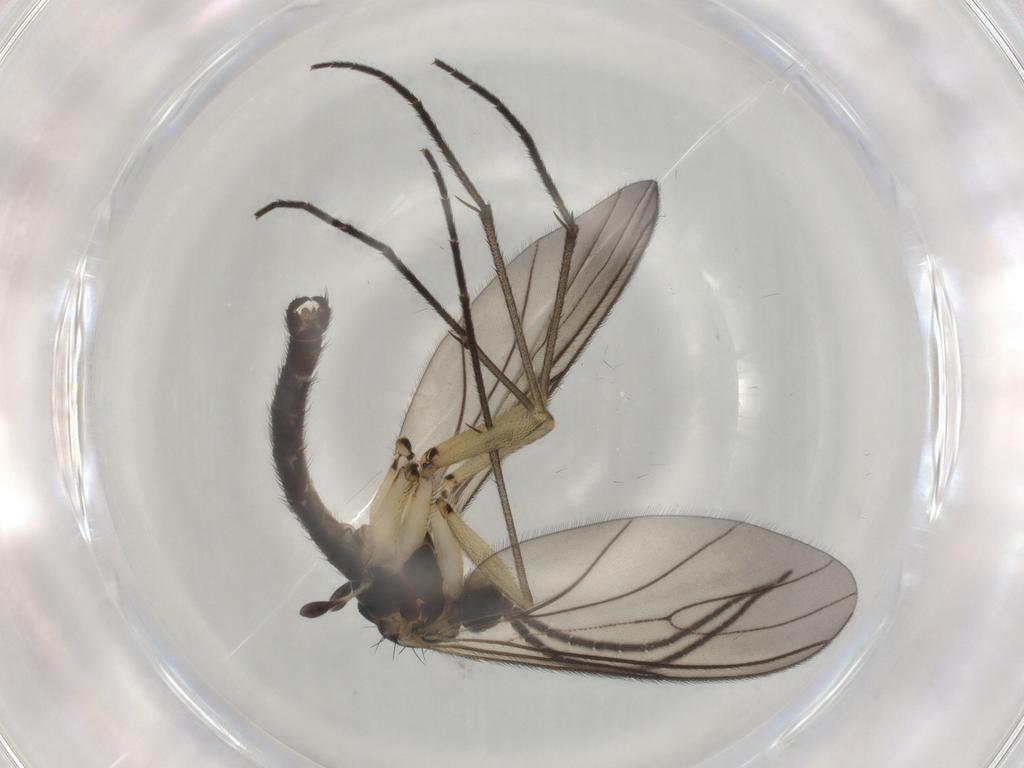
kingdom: Animalia
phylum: Arthropoda
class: Insecta
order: Diptera
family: Sciaridae
